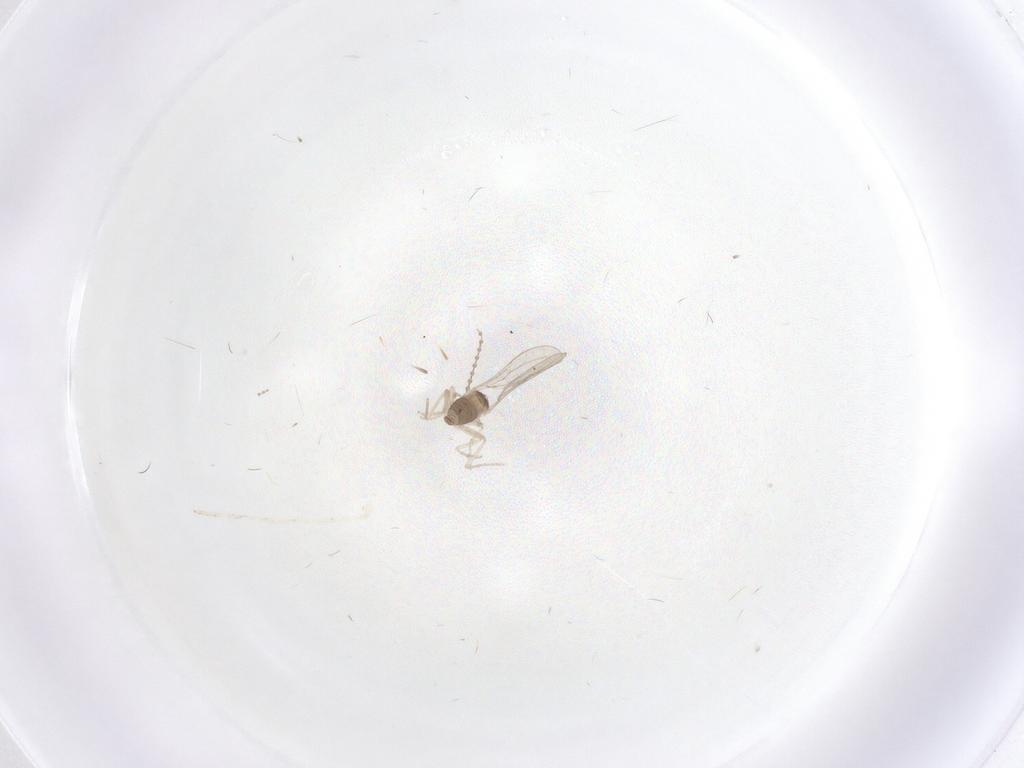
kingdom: Animalia
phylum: Arthropoda
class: Insecta
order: Diptera
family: Cecidomyiidae
